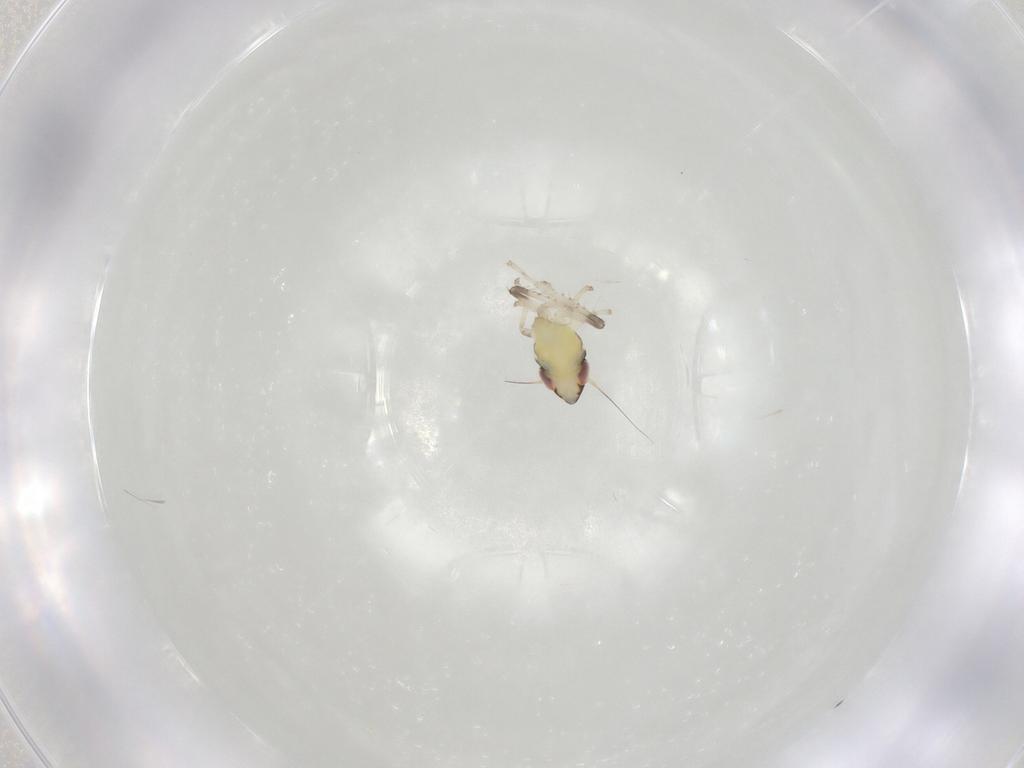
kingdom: Animalia
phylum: Arthropoda
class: Insecta
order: Hemiptera
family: Cicadellidae
